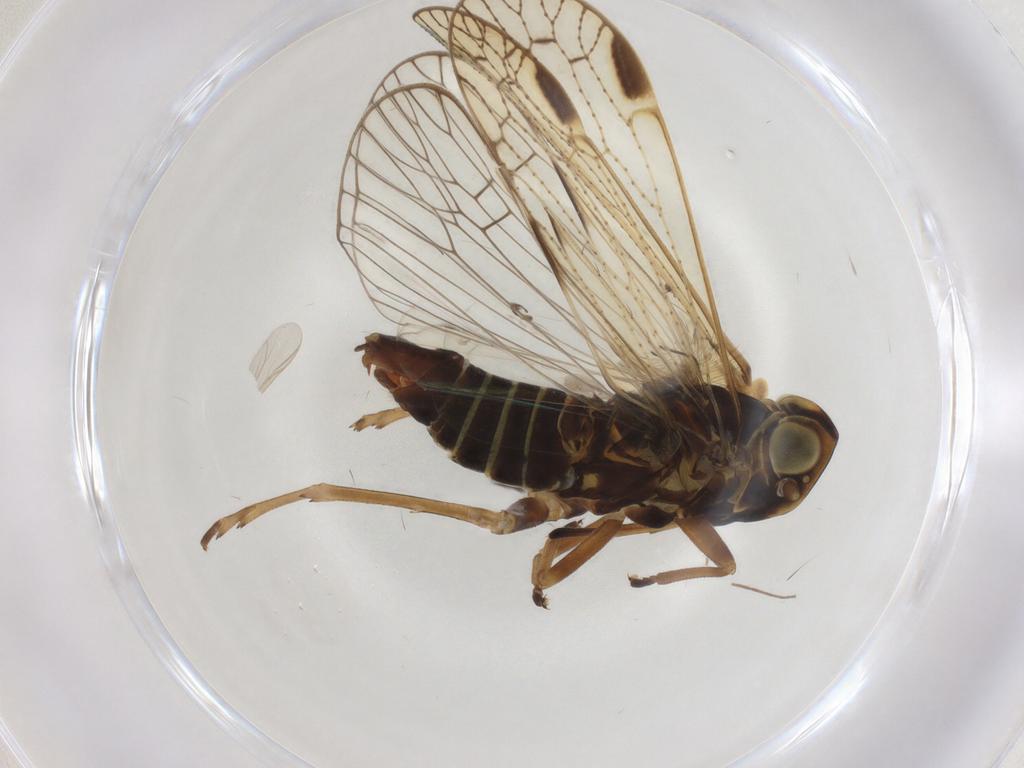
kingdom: Animalia
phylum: Arthropoda
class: Insecta
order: Hemiptera
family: Cixiidae
